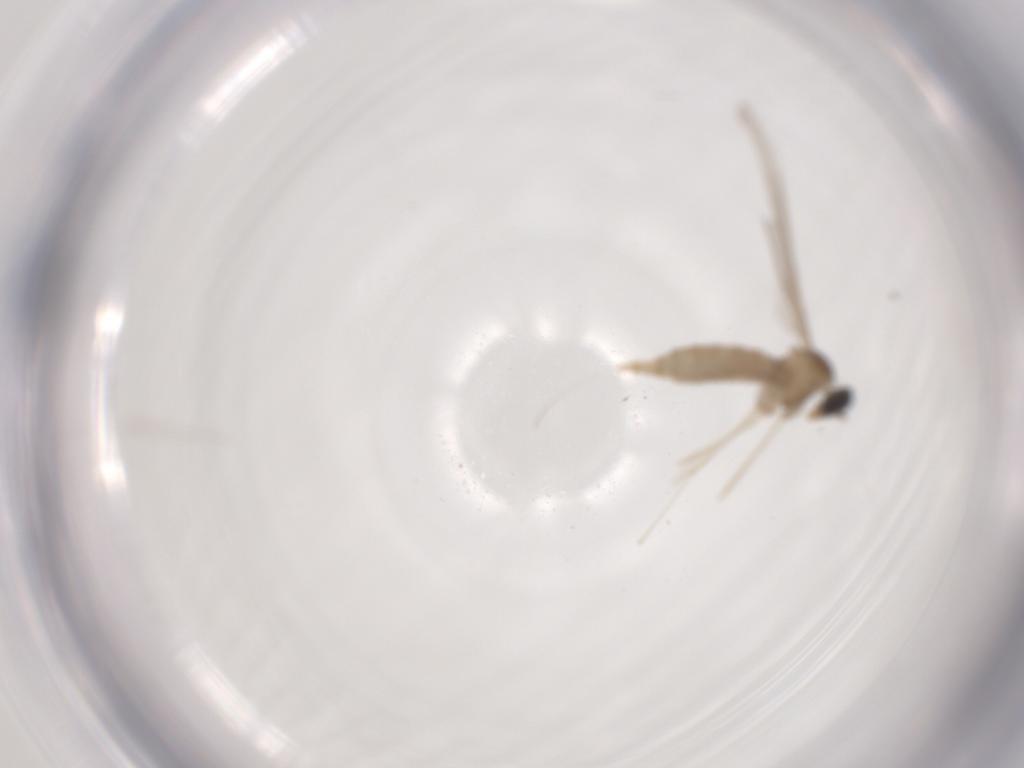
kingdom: Animalia
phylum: Arthropoda
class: Insecta
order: Diptera
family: Cecidomyiidae
